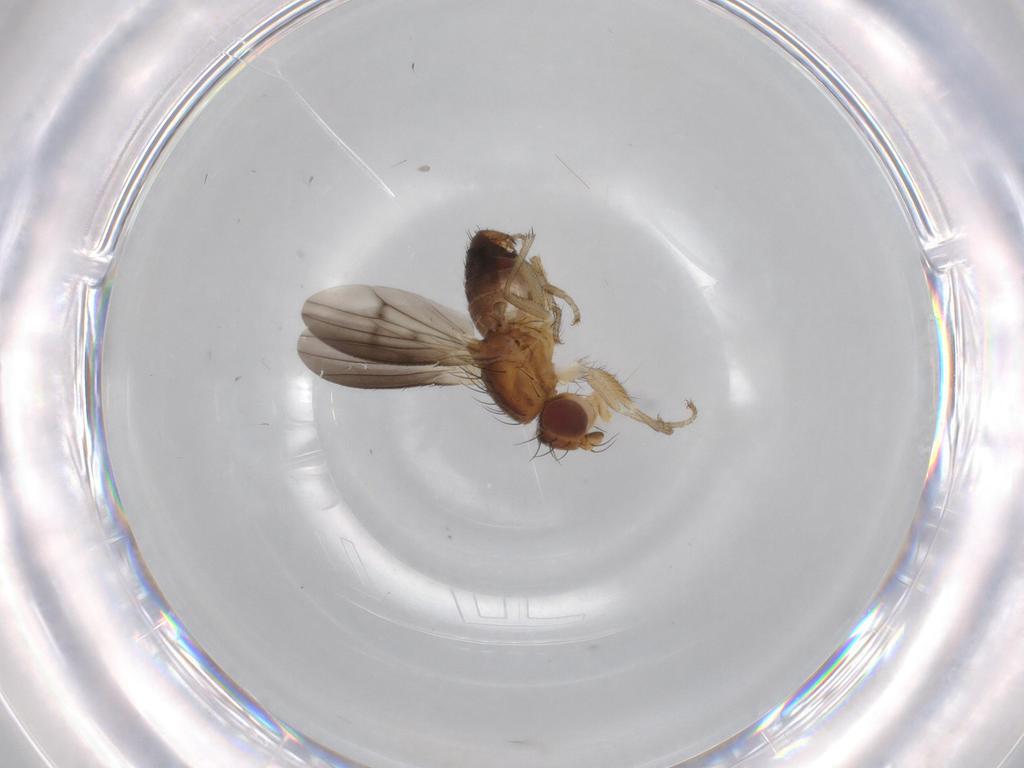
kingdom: Animalia
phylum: Arthropoda
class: Insecta
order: Diptera
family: Heleomyzidae
